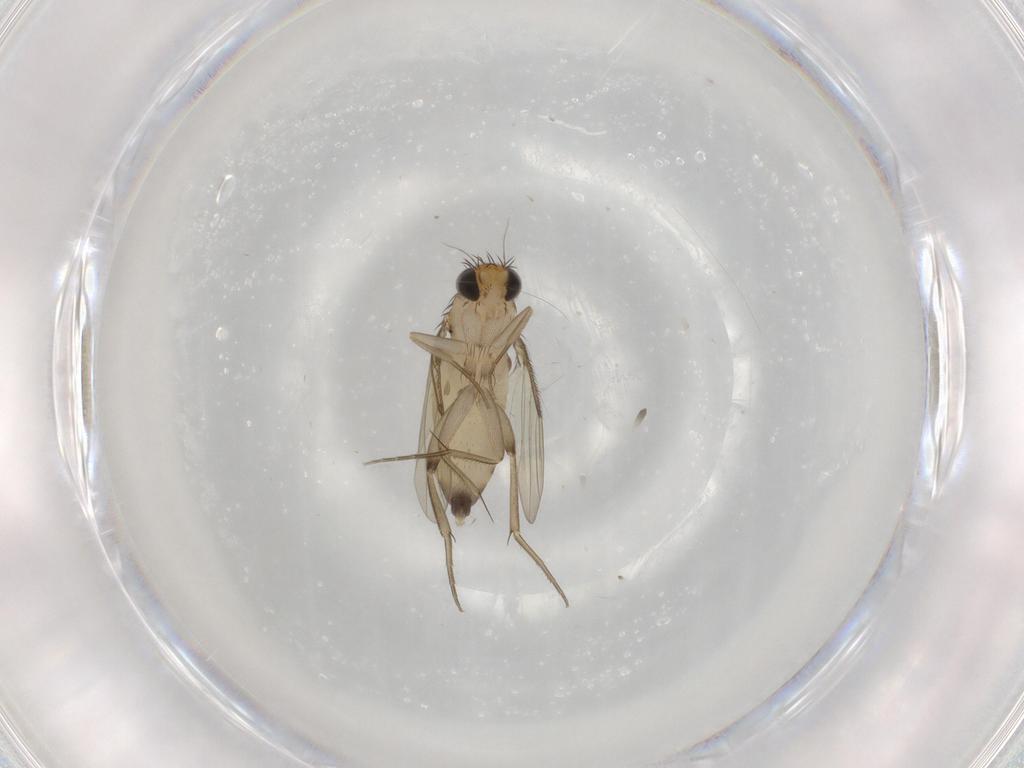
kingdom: Animalia
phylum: Arthropoda
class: Insecta
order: Diptera
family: Phoridae
